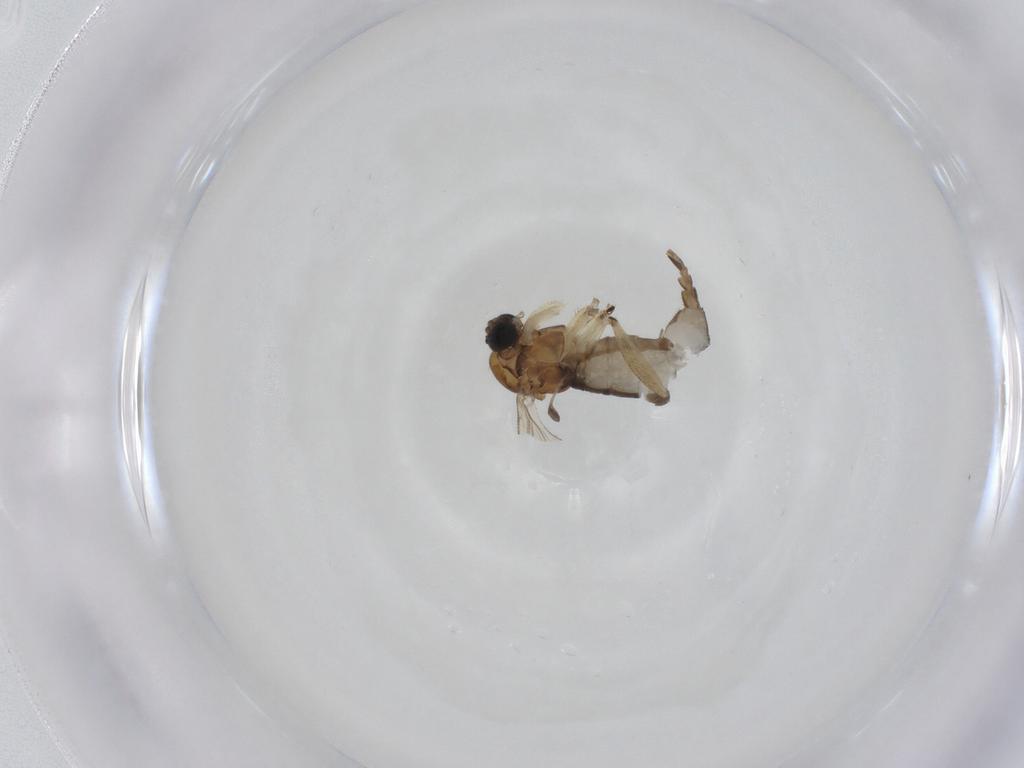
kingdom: Animalia
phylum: Arthropoda
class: Insecta
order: Diptera
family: Sciaridae
